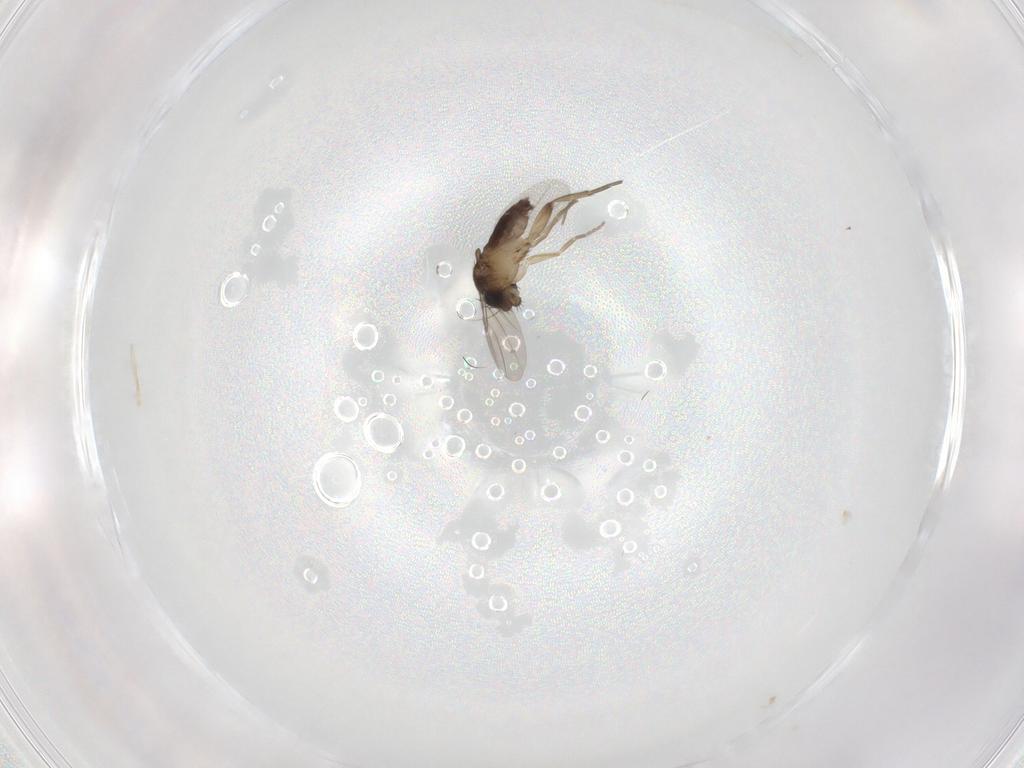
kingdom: Animalia
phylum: Arthropoda
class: Insecta
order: Diptera
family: Phoridae
